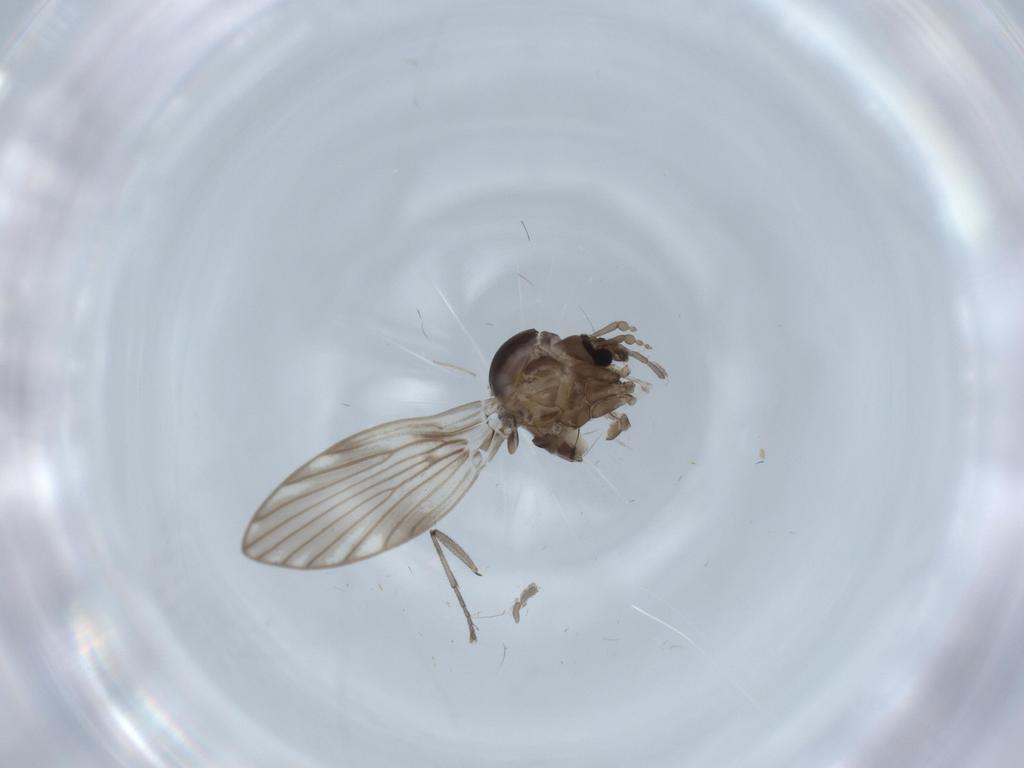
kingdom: Animalia
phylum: Arthropoda
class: Insecta
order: Diptera
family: Psychodidae
